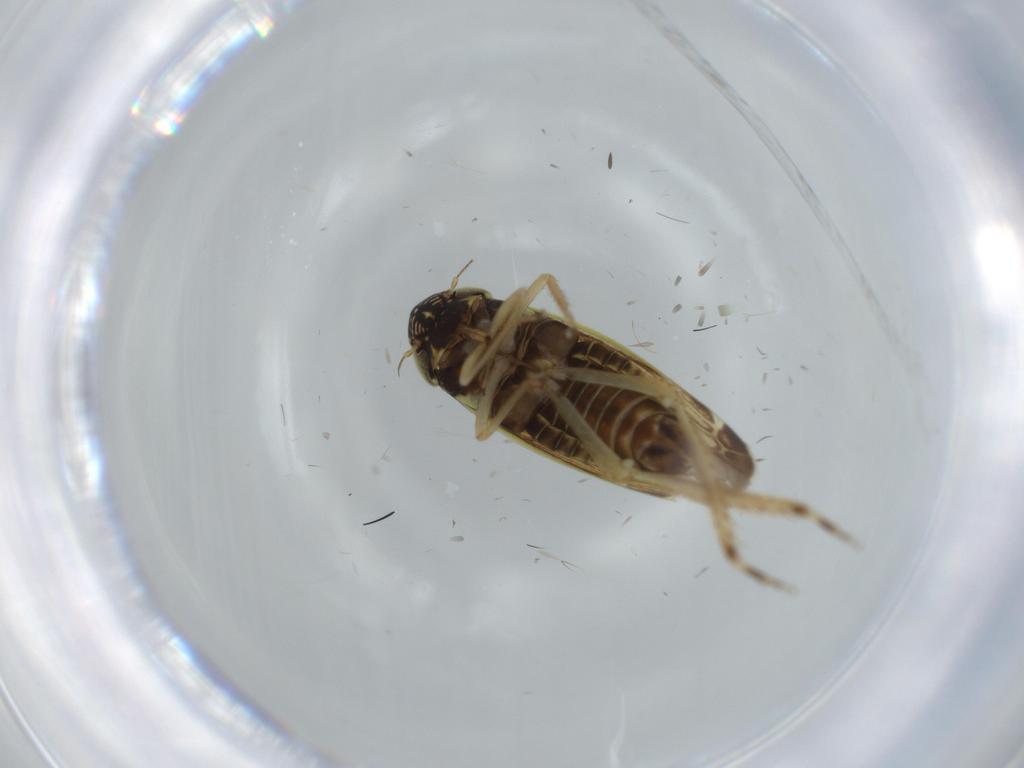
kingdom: Animalia
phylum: Arthropoda
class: Insecta
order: Hemiptera
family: Cicadellidae
